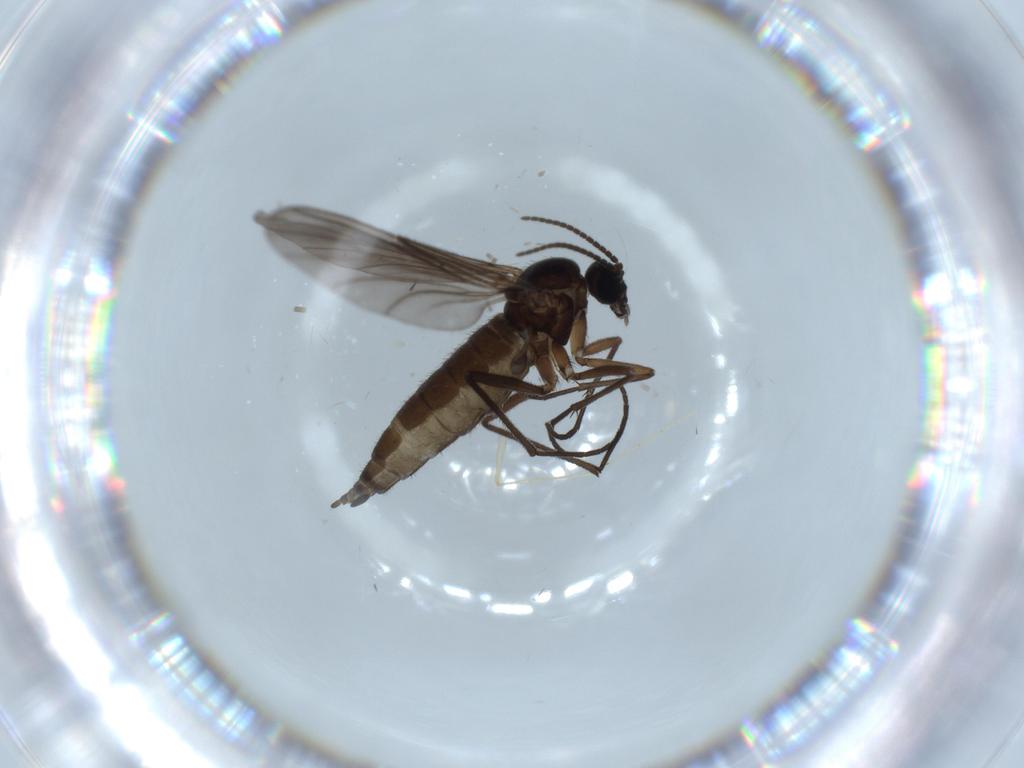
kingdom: Animalia
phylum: Arthropoda
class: Insecta
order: Diptera
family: Sciaridae
